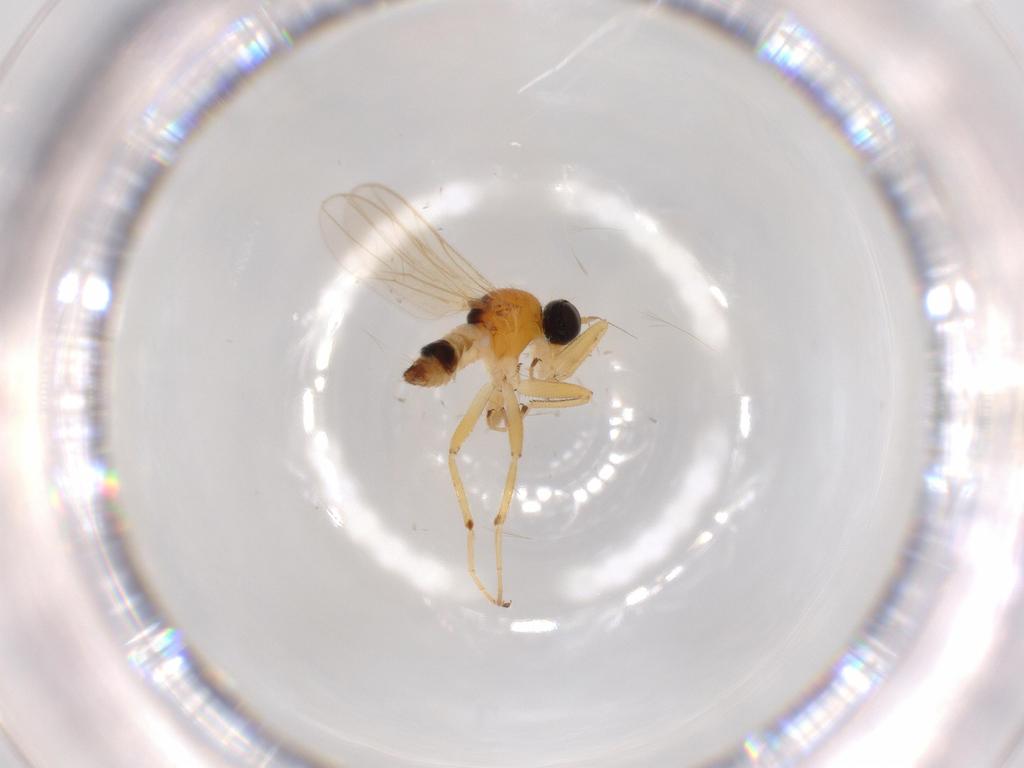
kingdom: Animalia
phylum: Arthropoda
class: Insecta
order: Diptera
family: Hybotidae
